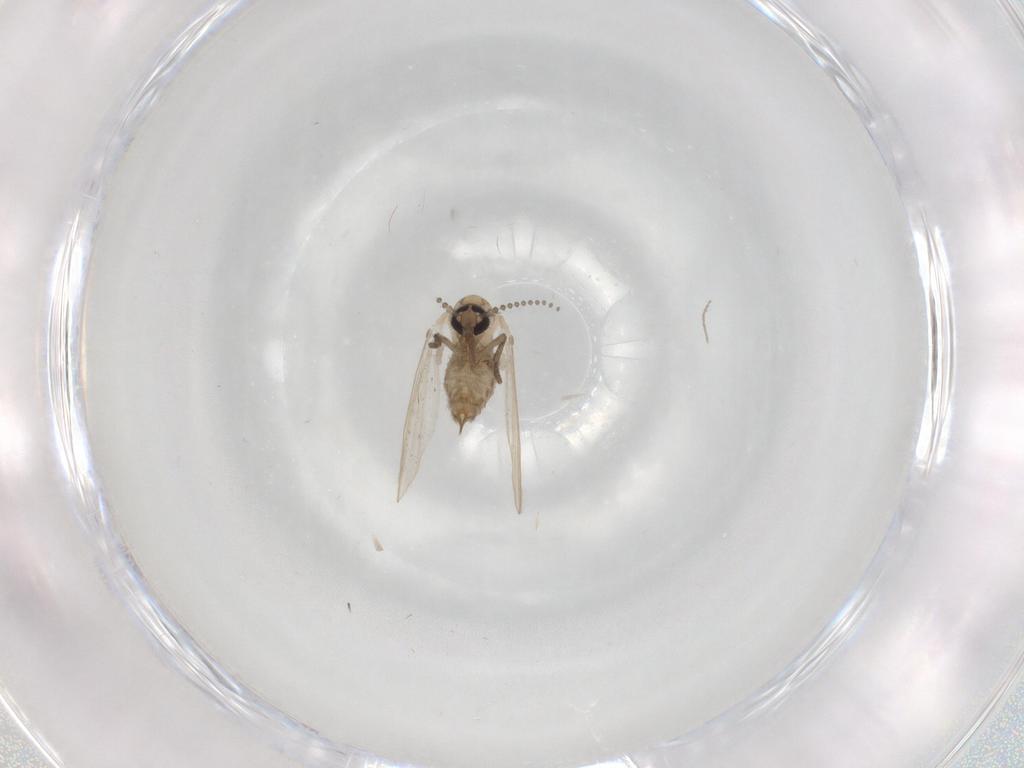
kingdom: Animalia
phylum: Arthropoda
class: Insecta
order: Diptera
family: Psychodidae
